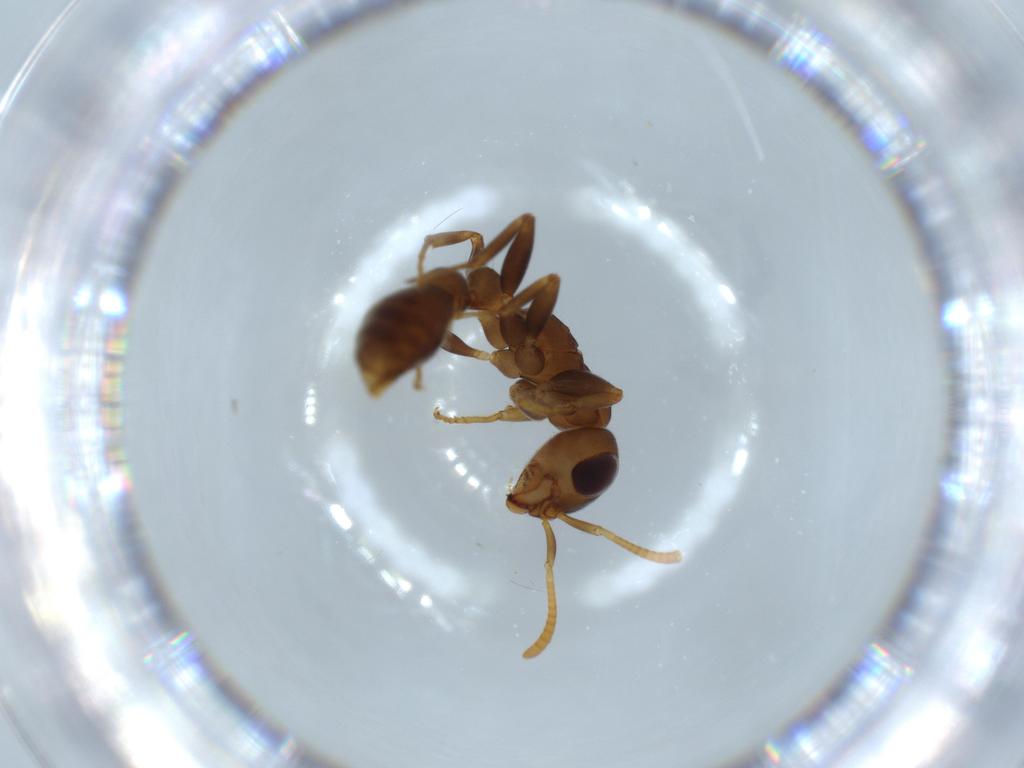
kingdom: Animalia
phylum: Arthropoda
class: Insecta
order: Hymenoptera
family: Formicidae
